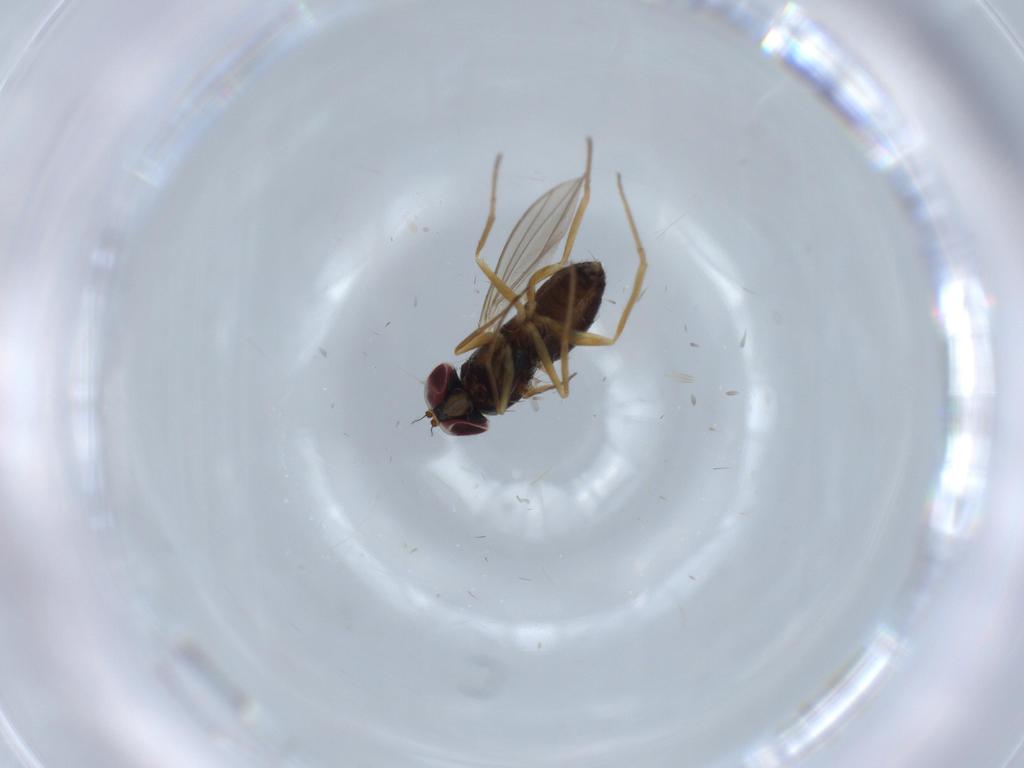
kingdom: Animalia
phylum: Arthropoda
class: Insecta
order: Diptera
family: Dolichopodidae
